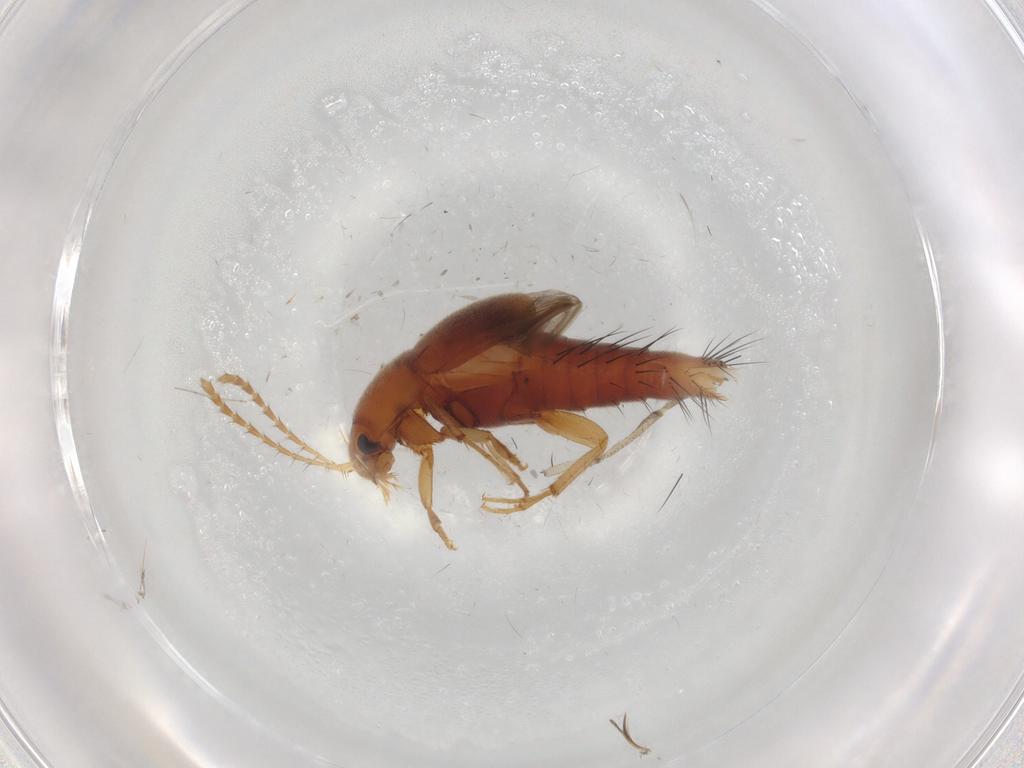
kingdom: Animalia
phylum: Arthropoda
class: Insecta
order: Coleoptera
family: Staphylinidae
